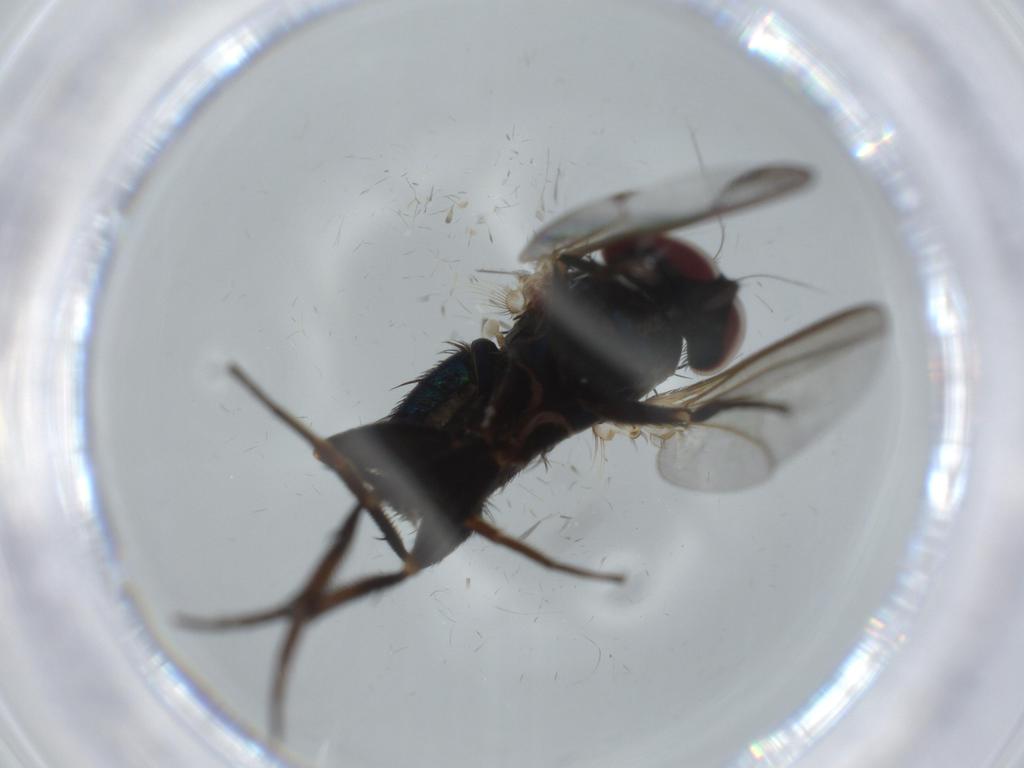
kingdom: Animalia
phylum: Arthropoda
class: Insecta
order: Diptera
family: Dolichopodidae
